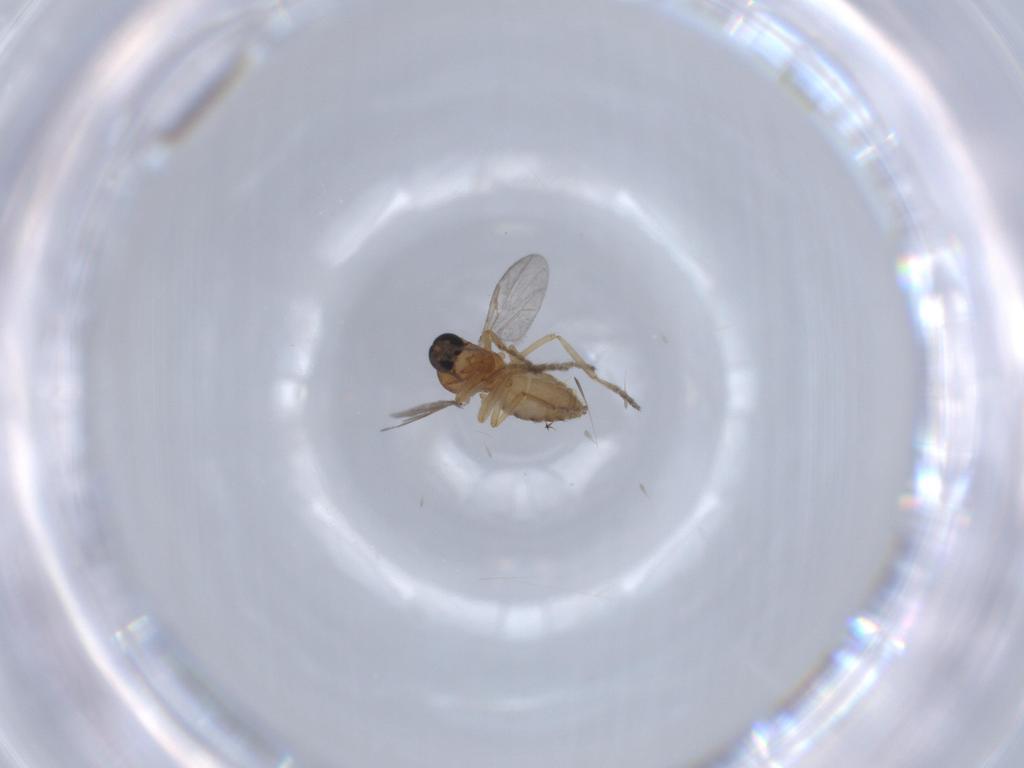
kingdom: Animalia
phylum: Arthropoda
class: Insecta
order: Diptera
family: Ceratopogonidae
